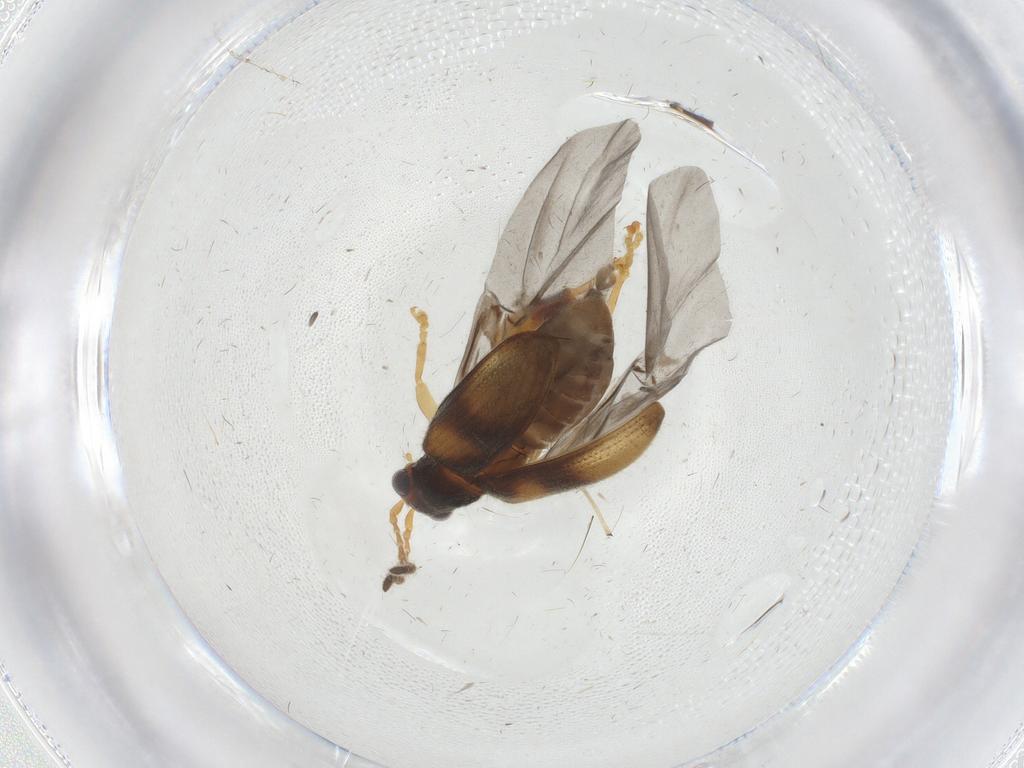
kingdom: Animalia
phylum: Arthropoda
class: Insecta
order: Coleoptera
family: Chrysomelidae
